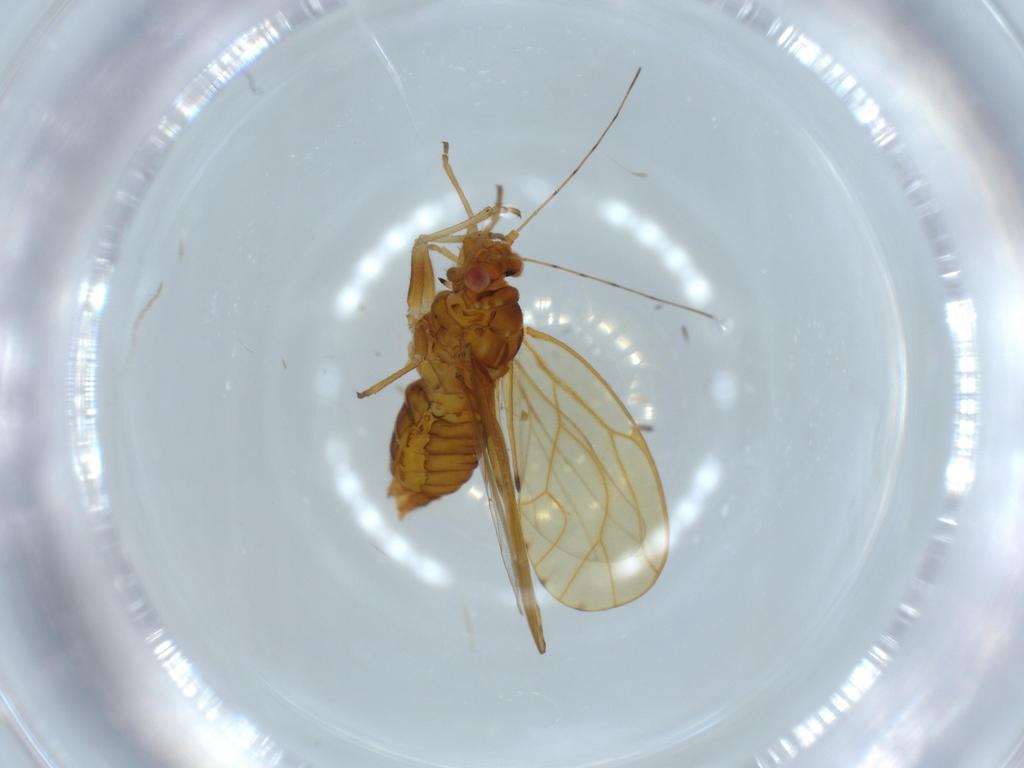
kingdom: Animalia
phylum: Arthropoda
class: Insecta
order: Hemiptera
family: Psylloidea_incertae_sedis
